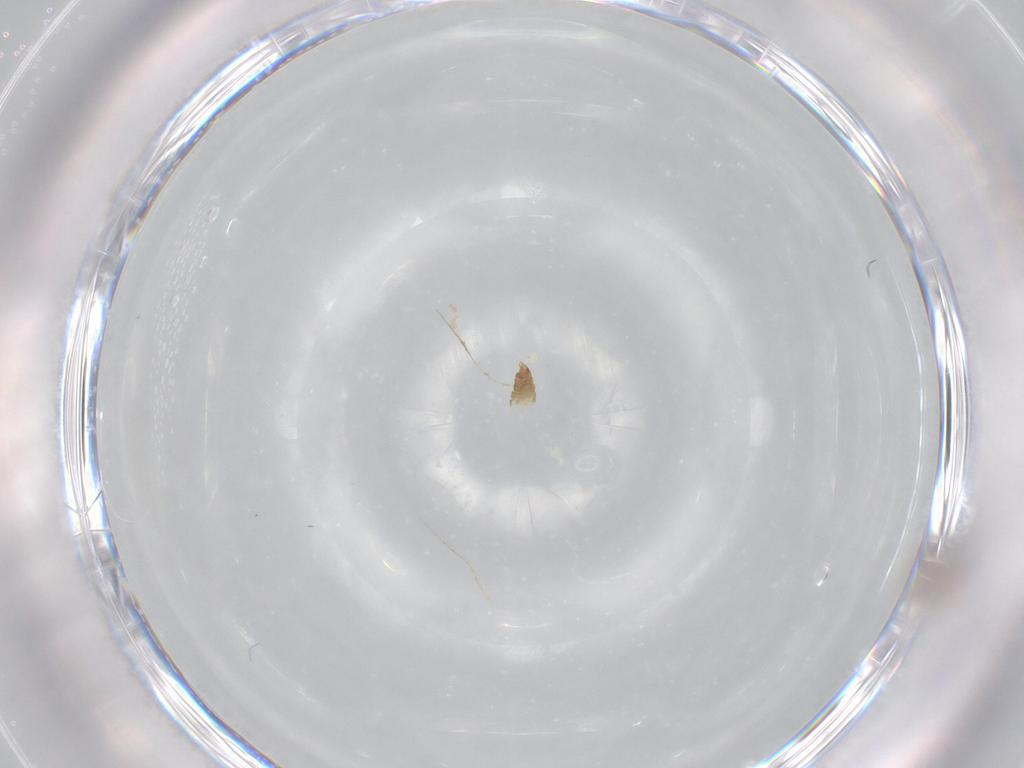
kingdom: Animalia
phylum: Arthropoda
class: Insecta
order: Diptera
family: Cecidomyiidae
